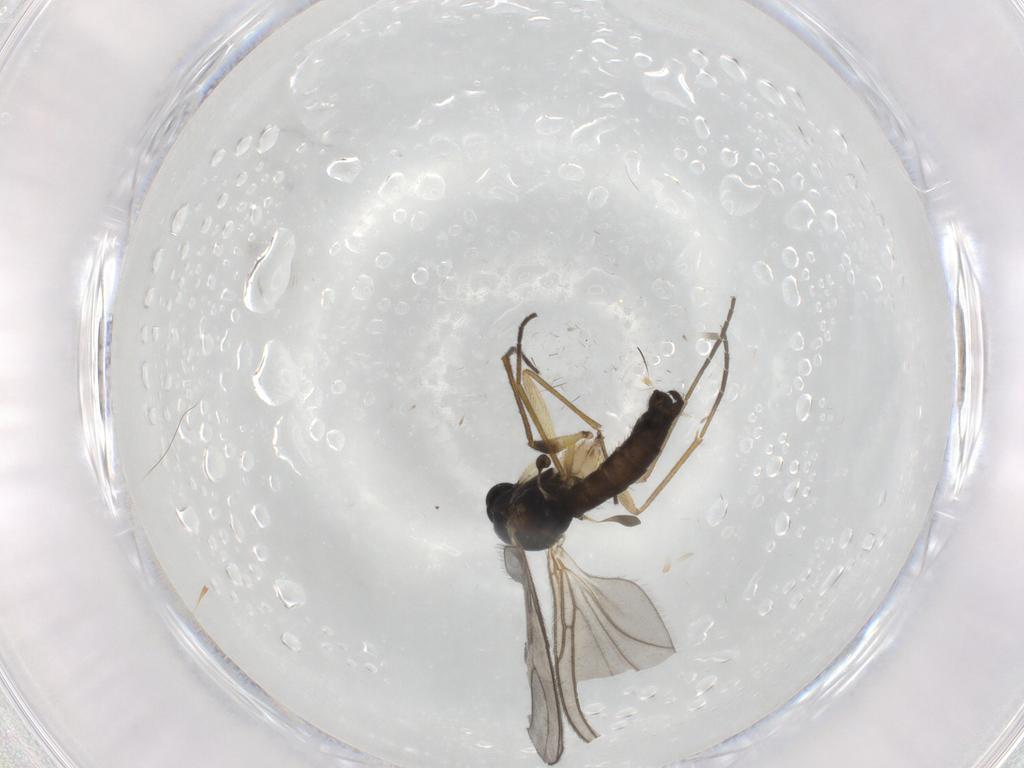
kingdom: Animalia
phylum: Arthropoda
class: Insecta
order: Diptera
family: Sciaridae
